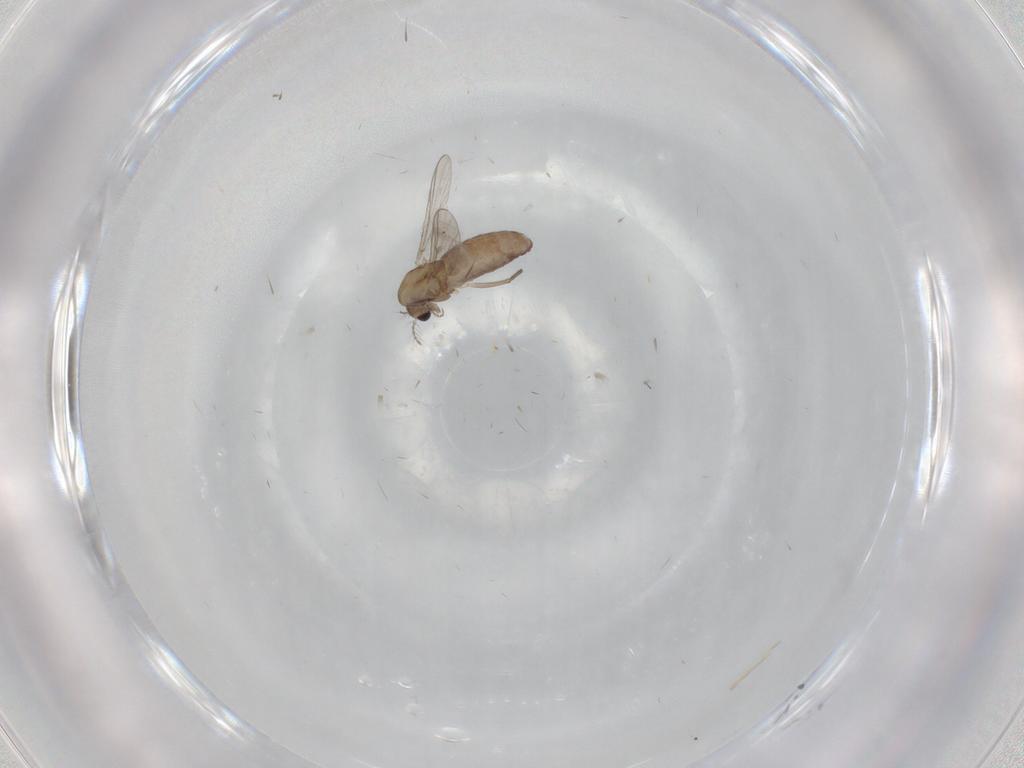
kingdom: Animalia
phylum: Arthropoda
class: Insecta
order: Diptera
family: Chironomidae
